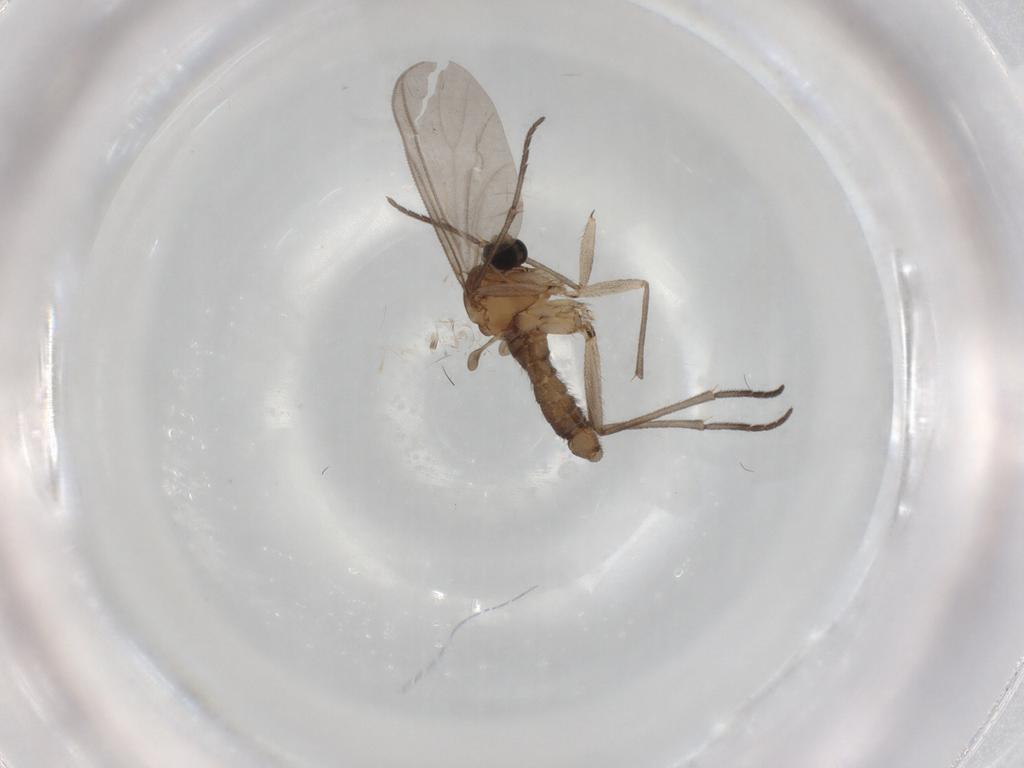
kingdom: Animalia
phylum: Arthropoda
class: Insecta
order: Diptera
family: Sciaridae
